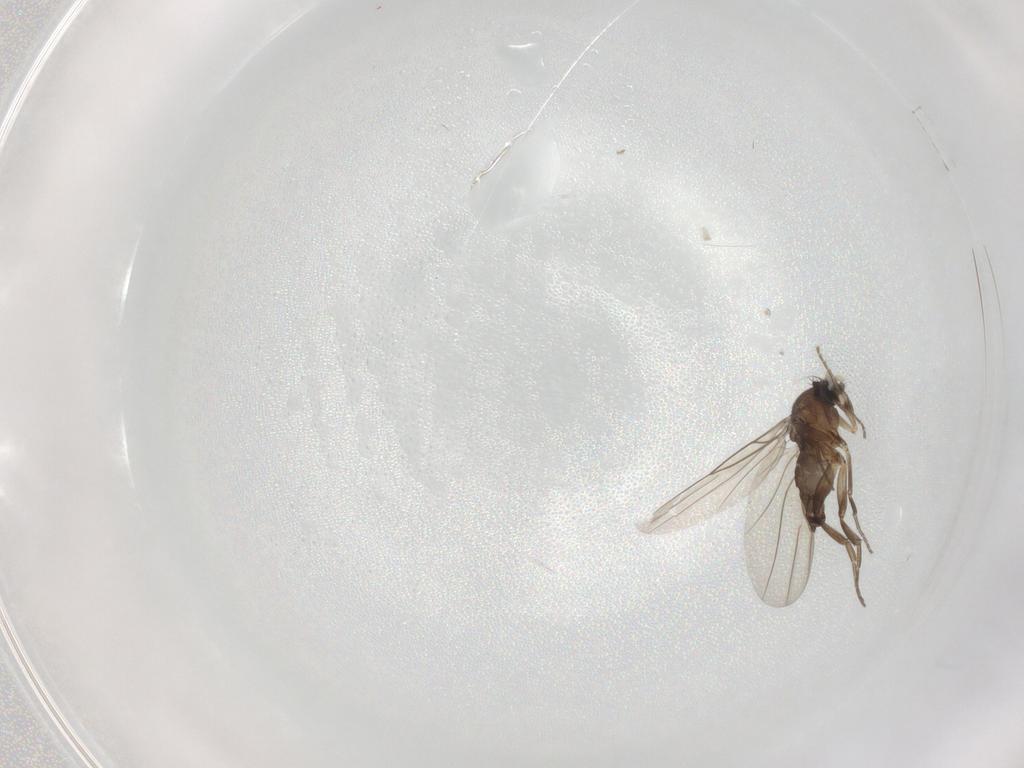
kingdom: Animalia
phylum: Arthropoda
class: Insecta
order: Diptera
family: Phoridae
